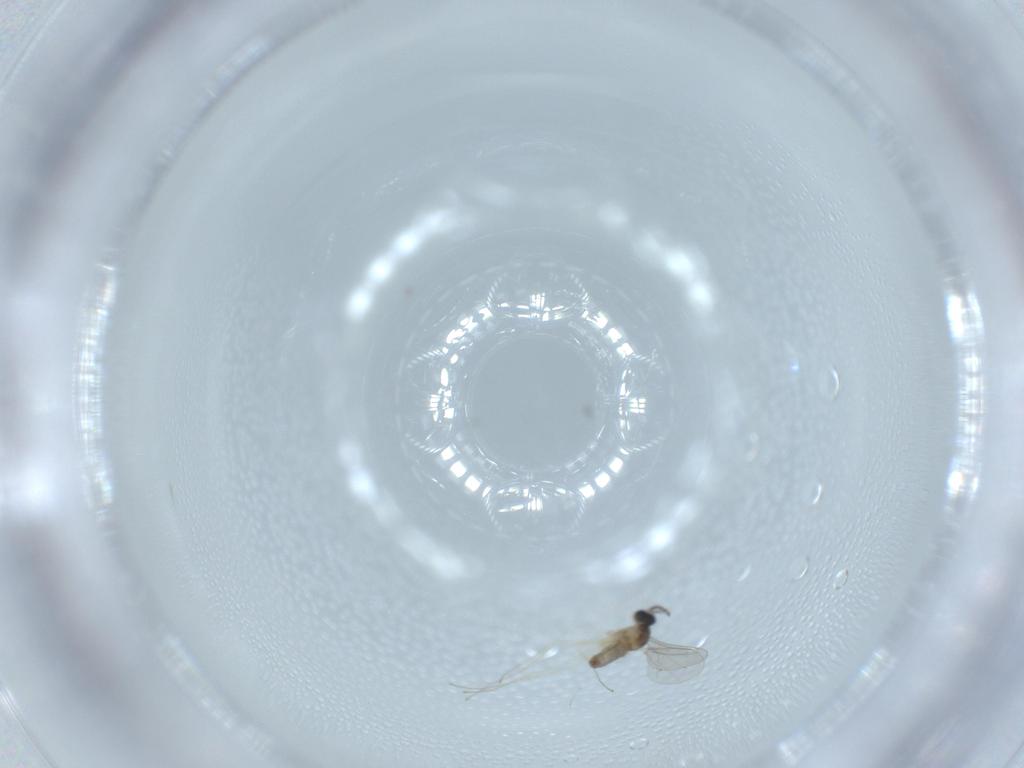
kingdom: Animalia
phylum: Arthropoda
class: Insecta
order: Diptera
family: Cecidomyiidae
